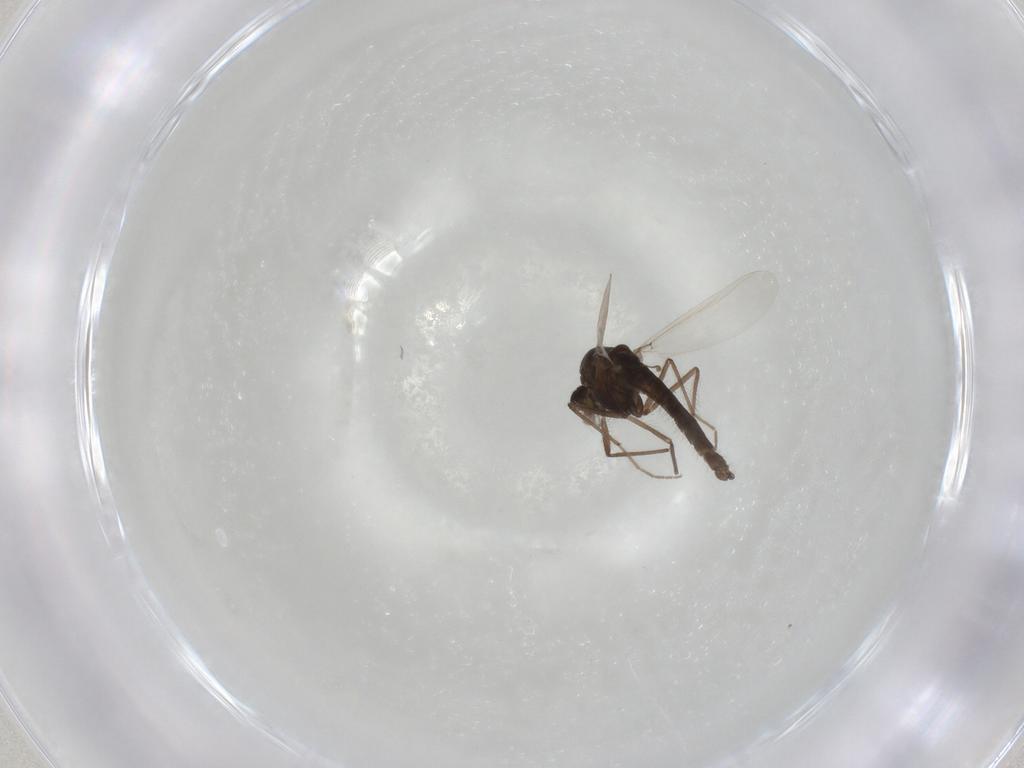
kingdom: Animalia
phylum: Arthropoda
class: Insecta
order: Diptera
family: Chironomidae
